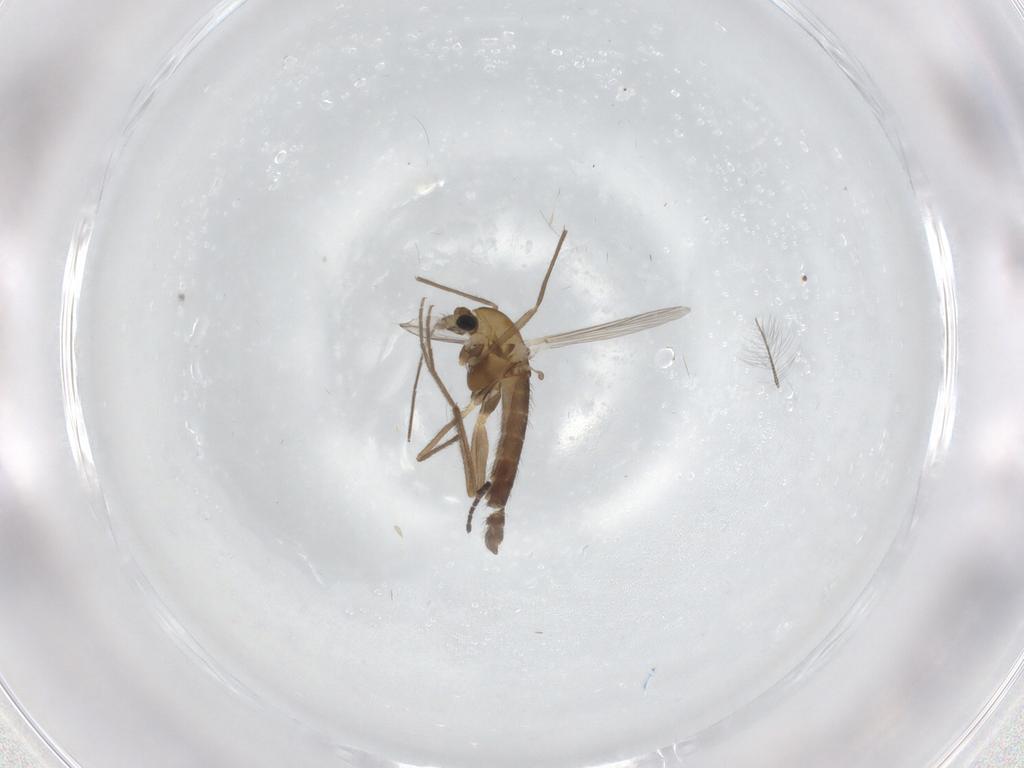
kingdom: Animalia
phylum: Arthropoda
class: Insecta
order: Diptera
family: Chironomidae
